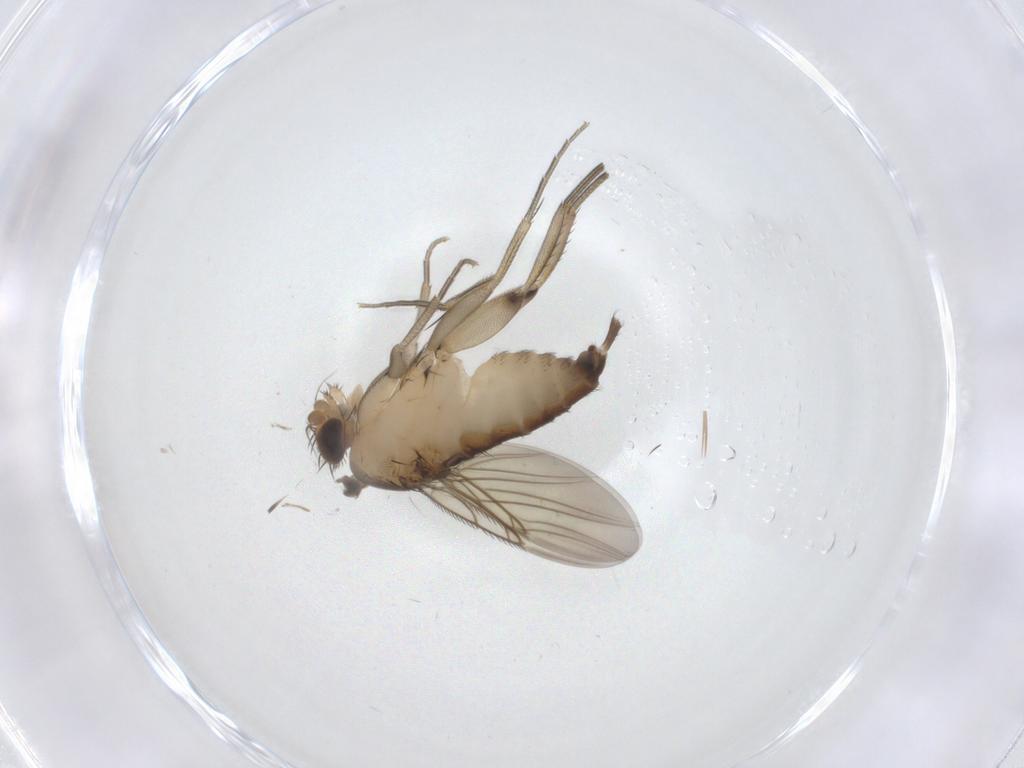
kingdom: Animalia
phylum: Arthropoda
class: Insecta
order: Diptera
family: Phoridae
